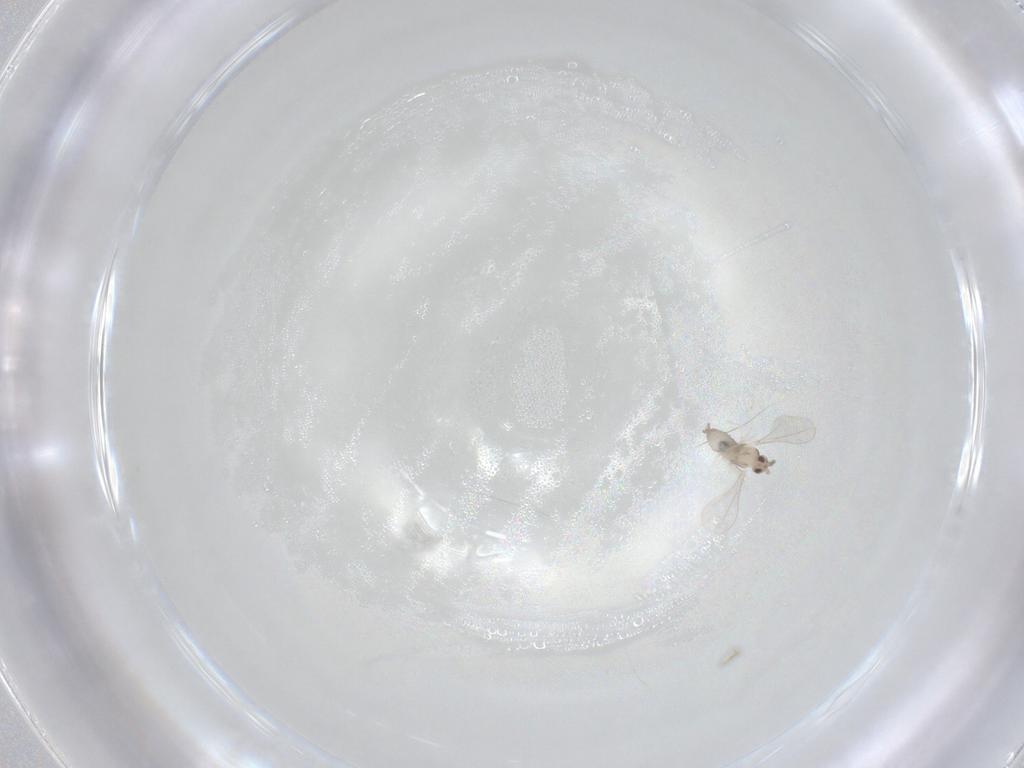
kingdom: Animalia
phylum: Arthropoda
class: Insecta
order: Diptera
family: Cecidomyiidae
